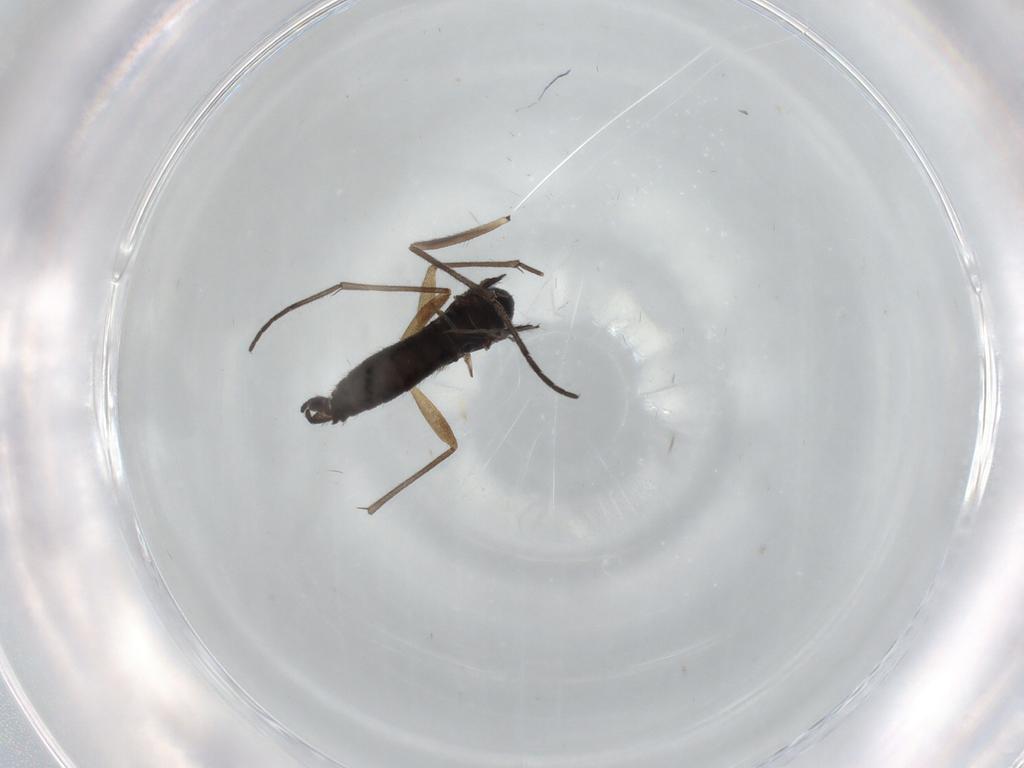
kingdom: Animalia
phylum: Arthropoda
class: Insecta
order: Diptera
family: Sciaridae
